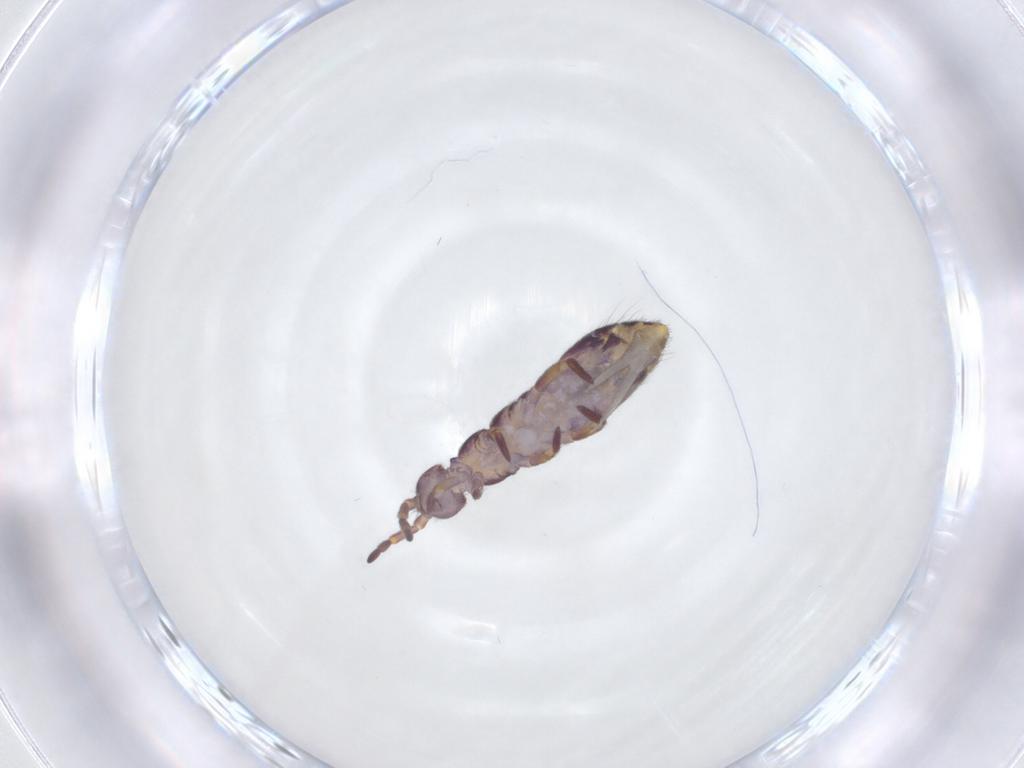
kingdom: Animalia
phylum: Arthropoda
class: Collembola
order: Entomobryomorpha
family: Isotomidae
